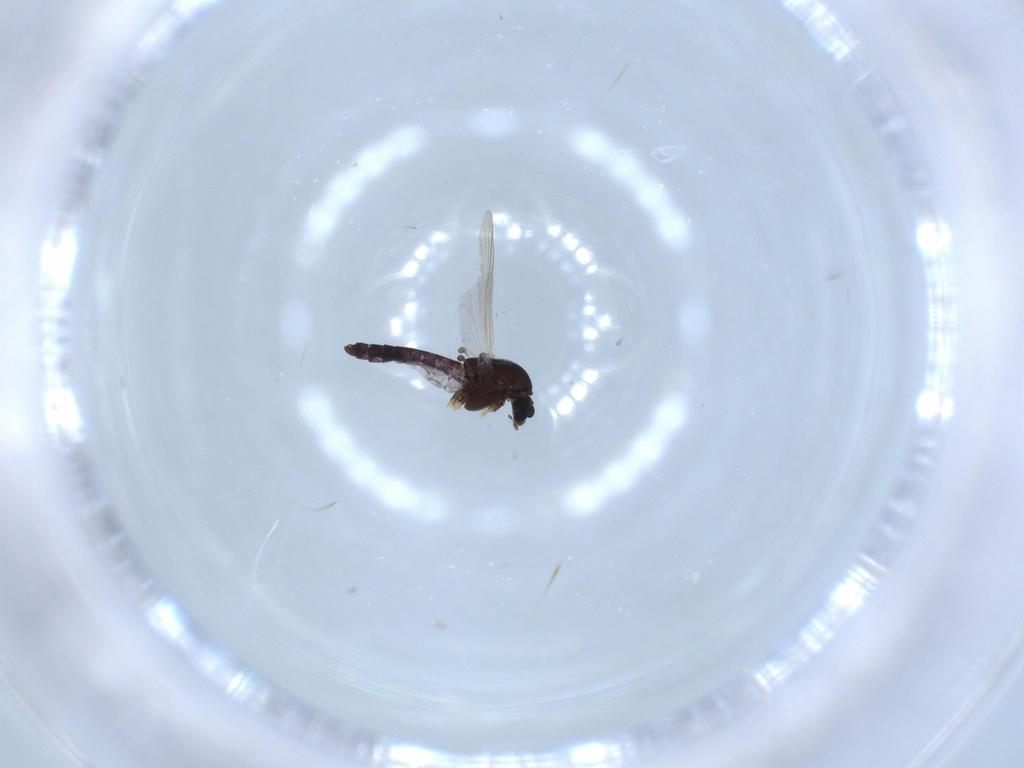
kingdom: Animalia
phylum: Arthropoda
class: Insecta
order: Diptera
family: Chironomidae
